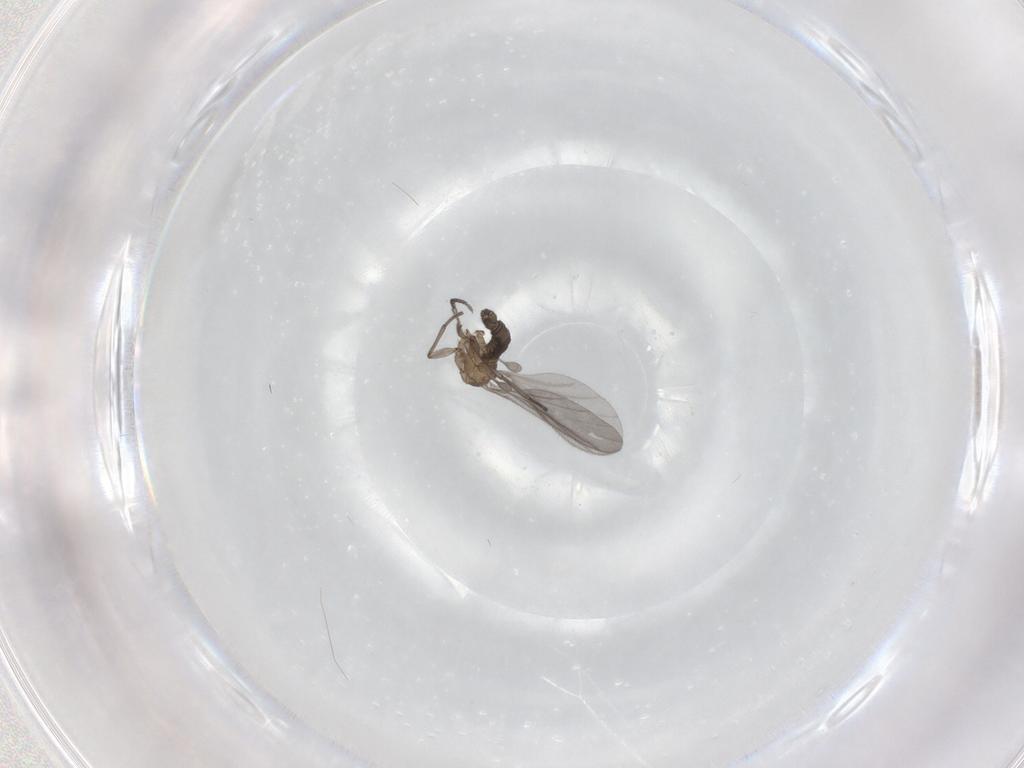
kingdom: Animalia
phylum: Arthropoda
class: Insecta
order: Diptera
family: Sciaridae
